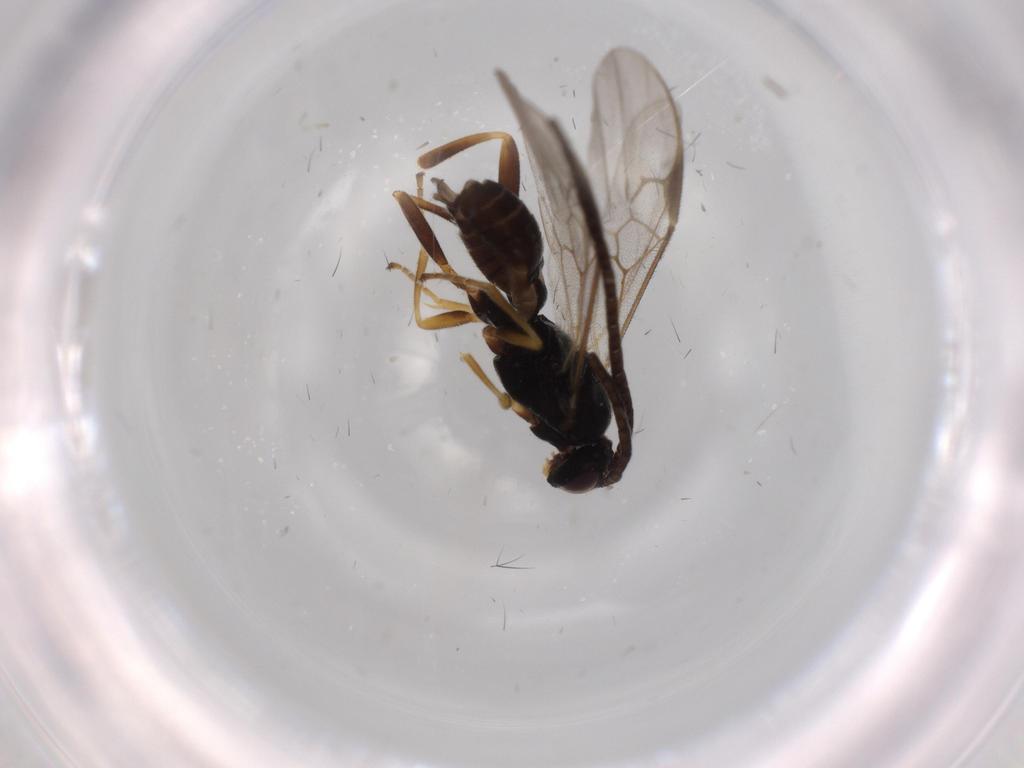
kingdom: Animalia
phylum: Arthropoda
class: Insecta
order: Hymenoptera
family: Braconidae
